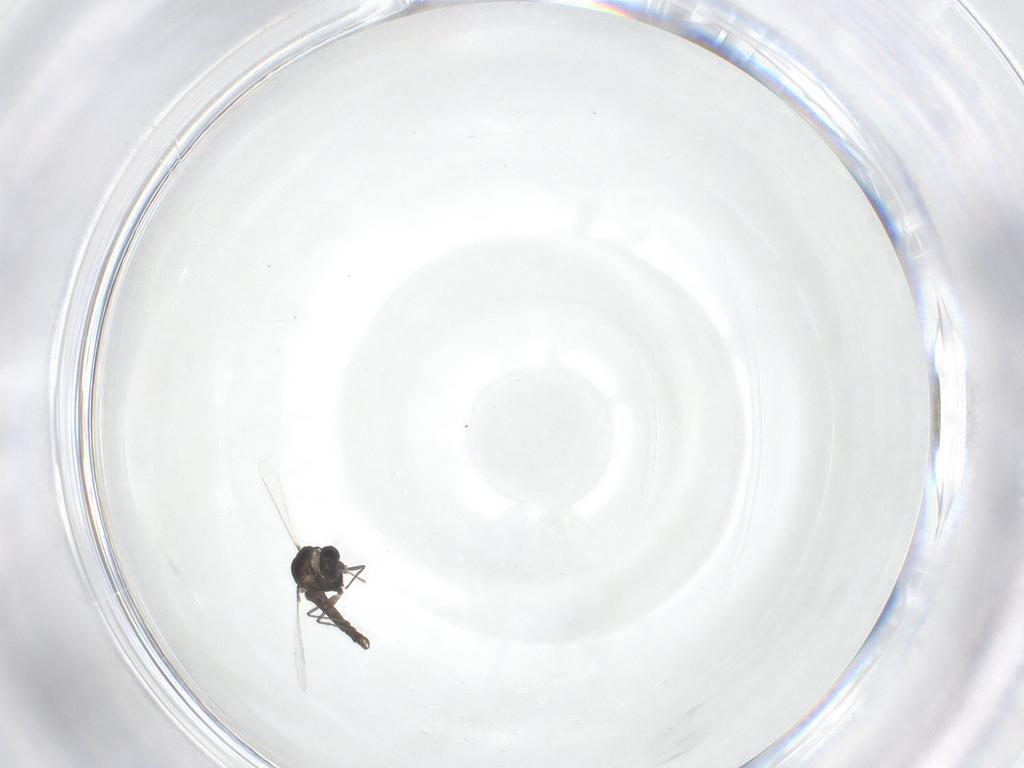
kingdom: Animalia
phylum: Arthropoda
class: Insecta
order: Diptera
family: Chironomidae
